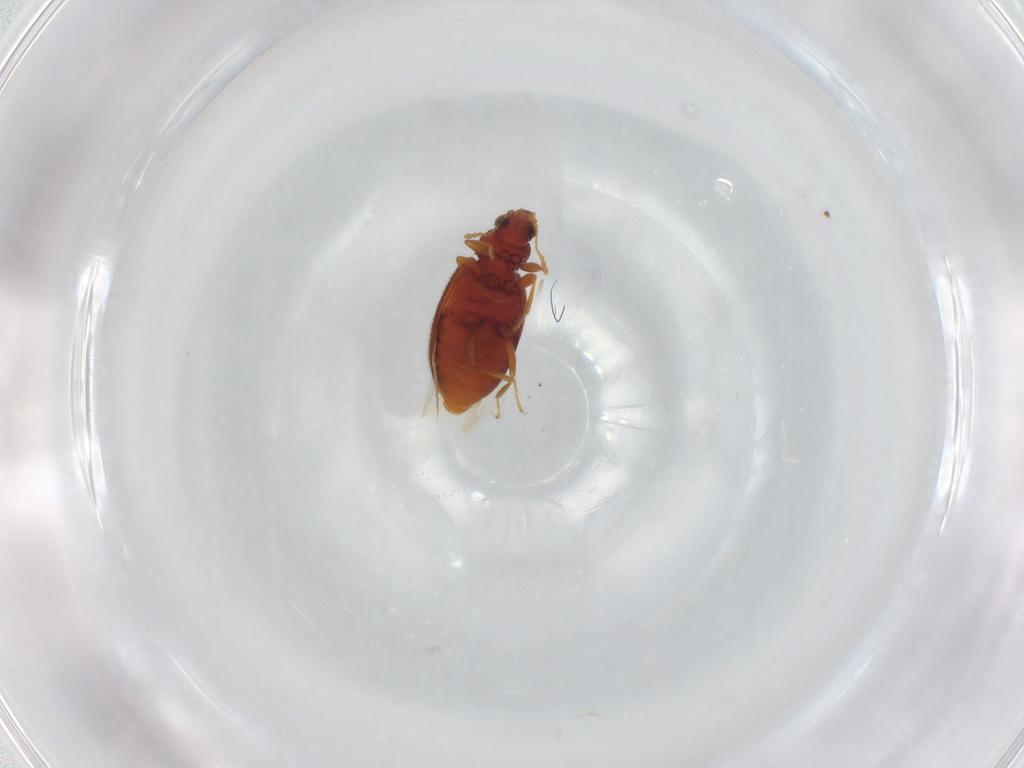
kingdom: Animalia
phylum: Arthropoda
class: Insecta
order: Coleoptera
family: Latridiidae
